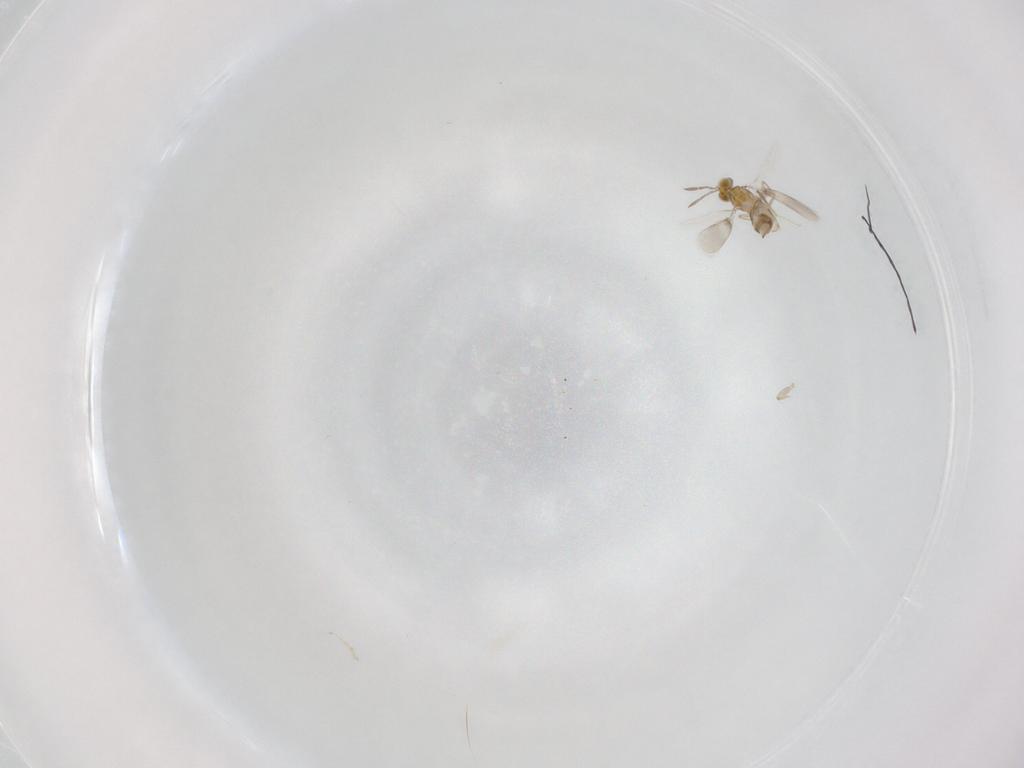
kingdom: Animalia
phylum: Arthropoda
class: Insecta
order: Hymenoptera
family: Aphelinidae
